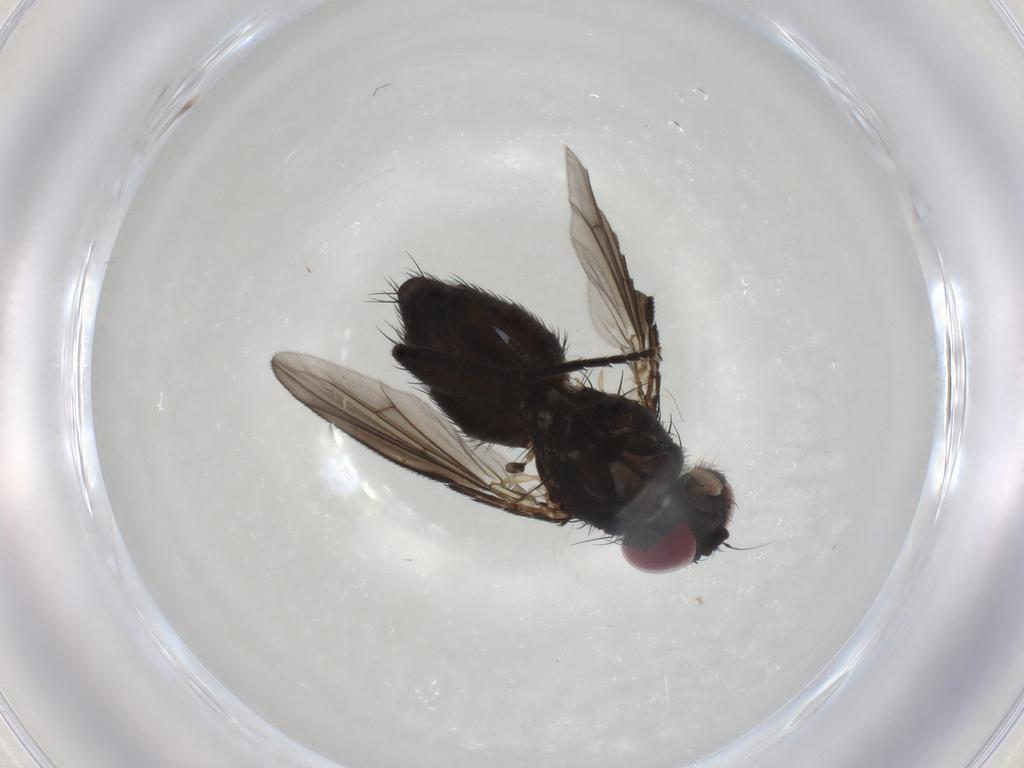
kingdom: Animalia
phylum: Arthropoda
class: Insecta
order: Diptera
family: Calliphoridae
